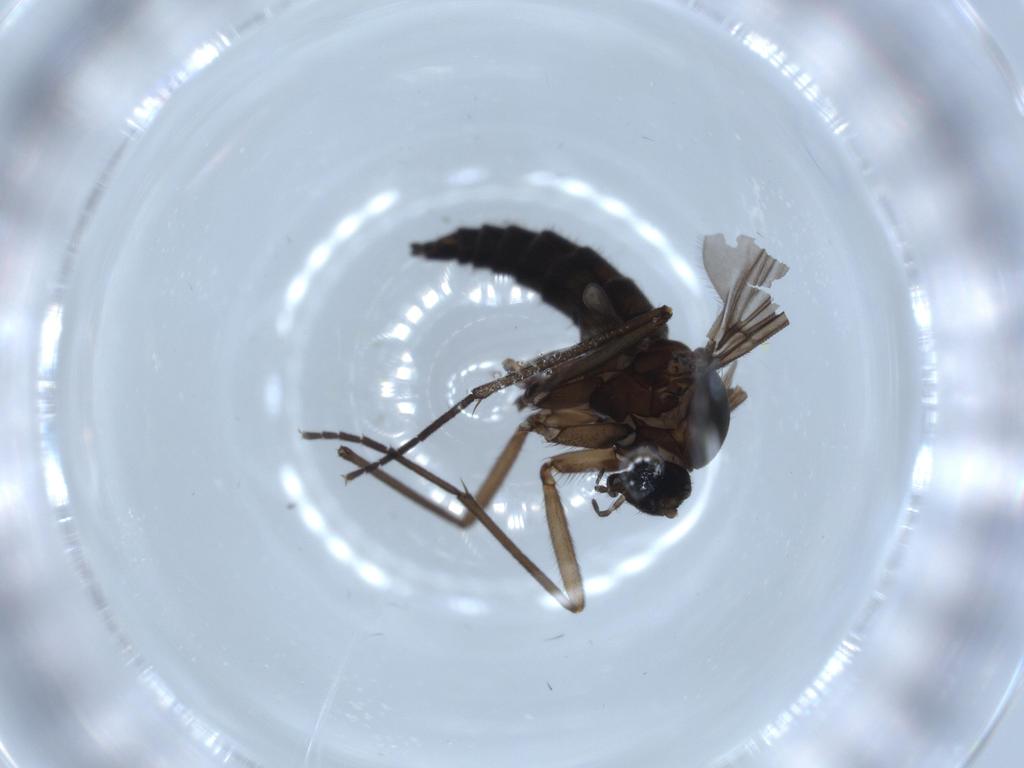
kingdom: Animalia
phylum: Arthropoda
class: Insecta
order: Diptera
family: Sciaridae
